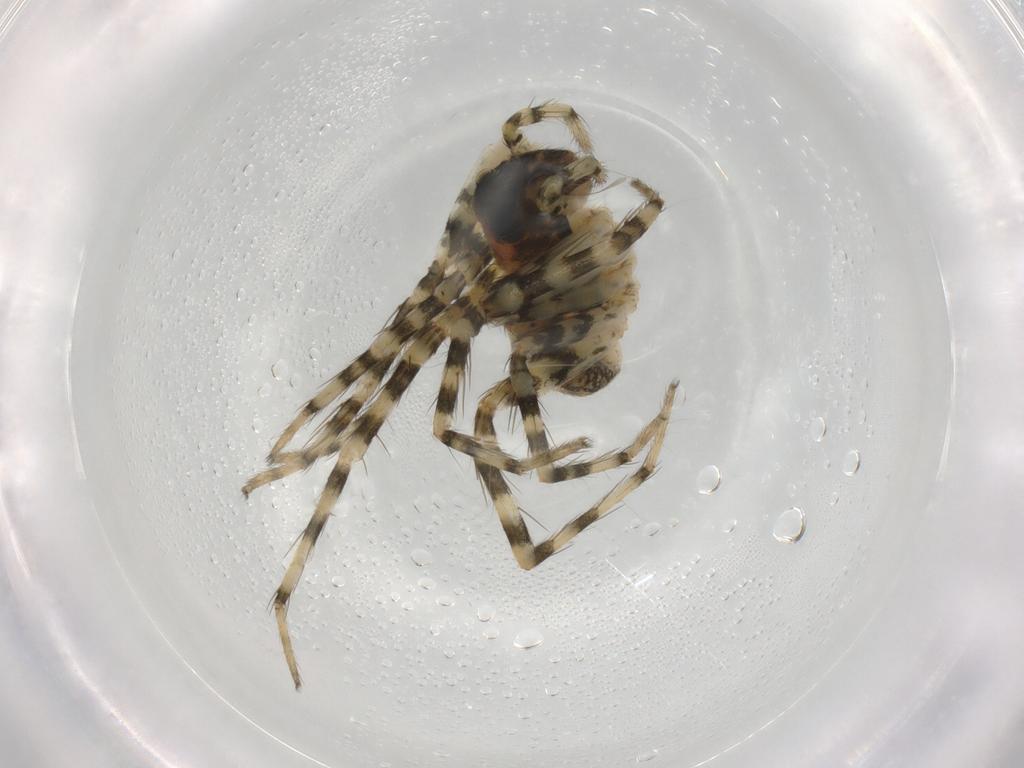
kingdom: Animalia
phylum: Arthropoda
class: Arachnida
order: Araneae
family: Lycosidae
